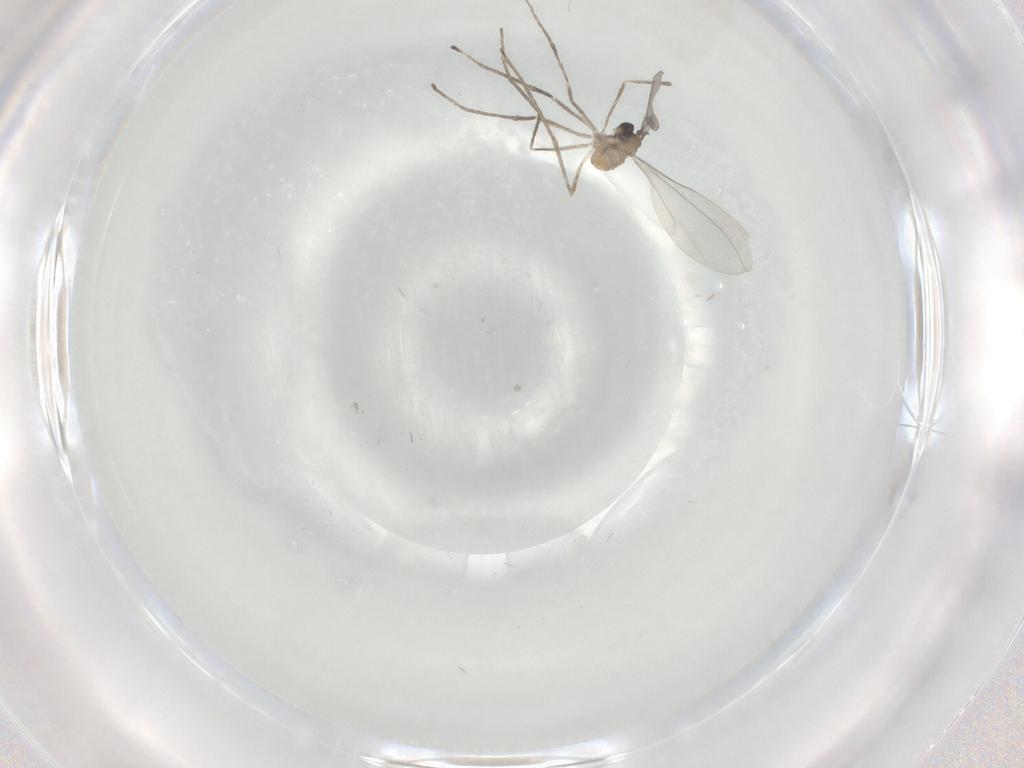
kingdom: Animalia
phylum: Arthropoda
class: Insecta
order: Diptera
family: Cecidomyiidae
